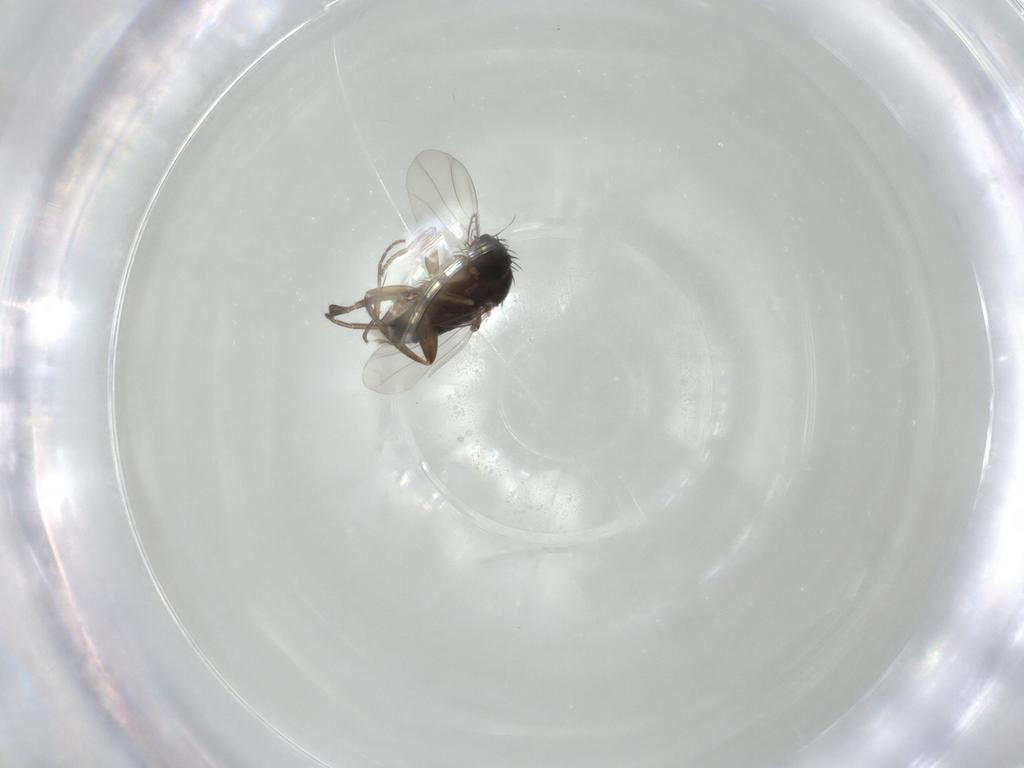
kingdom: Animalia
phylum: Arthropoda
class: Insecta
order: Diptera
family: Phoridae
